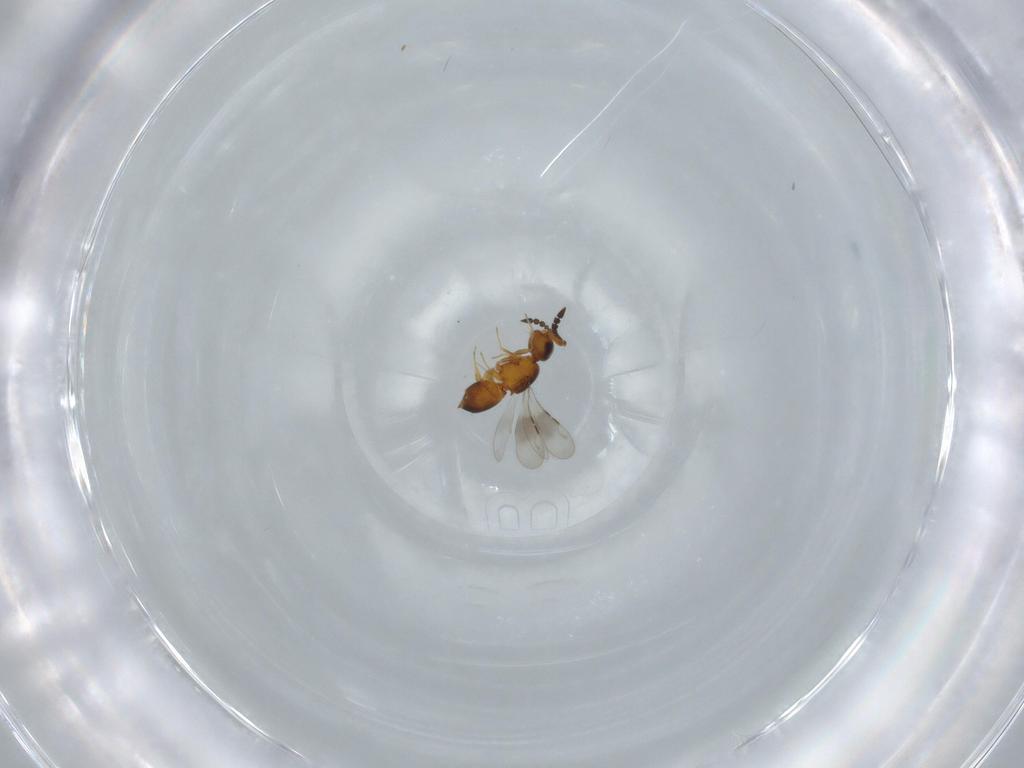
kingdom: Animalia
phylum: Arthropoda
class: Insecta
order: Hymenoptera
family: Ceraphronidae
